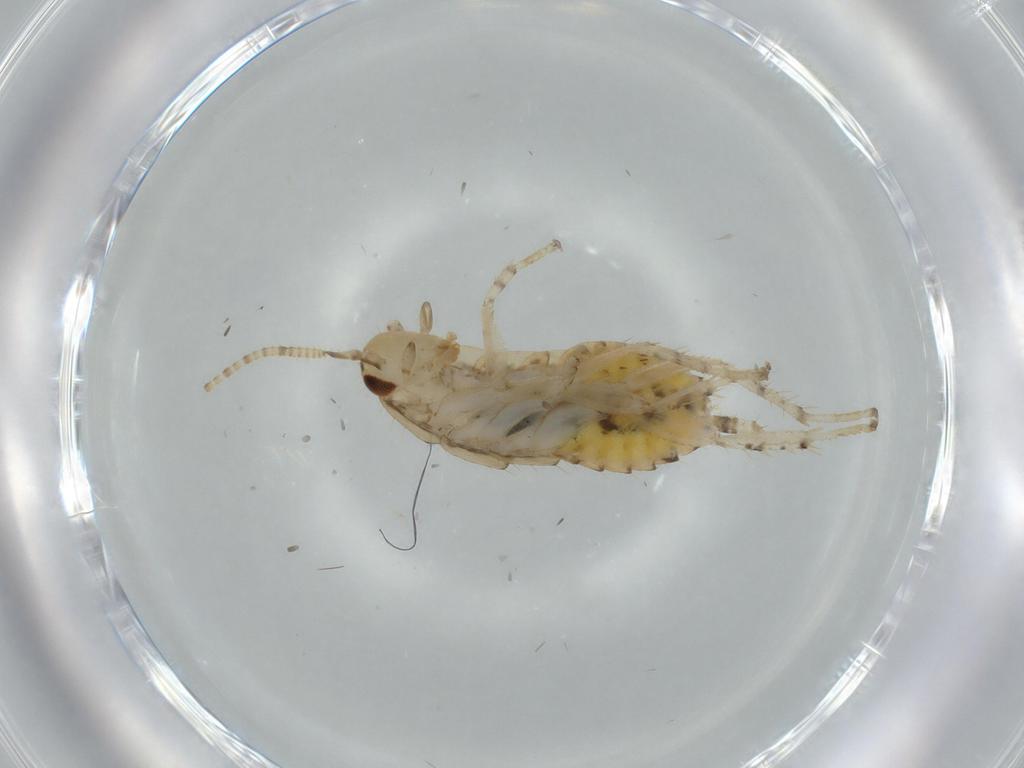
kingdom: Animalia
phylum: Arthropoda
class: Insecta
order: Blattodea
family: Ectobiidae
